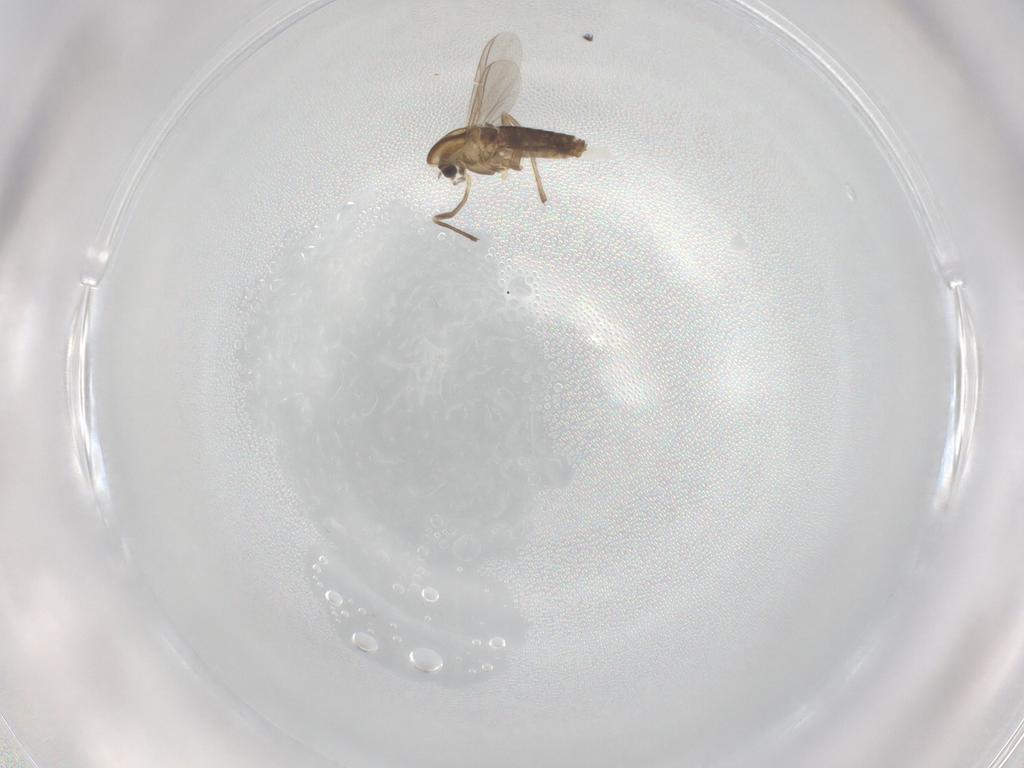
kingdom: Animalia
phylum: Arthropoda
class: Insecta
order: Diptera
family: Chironomidae
